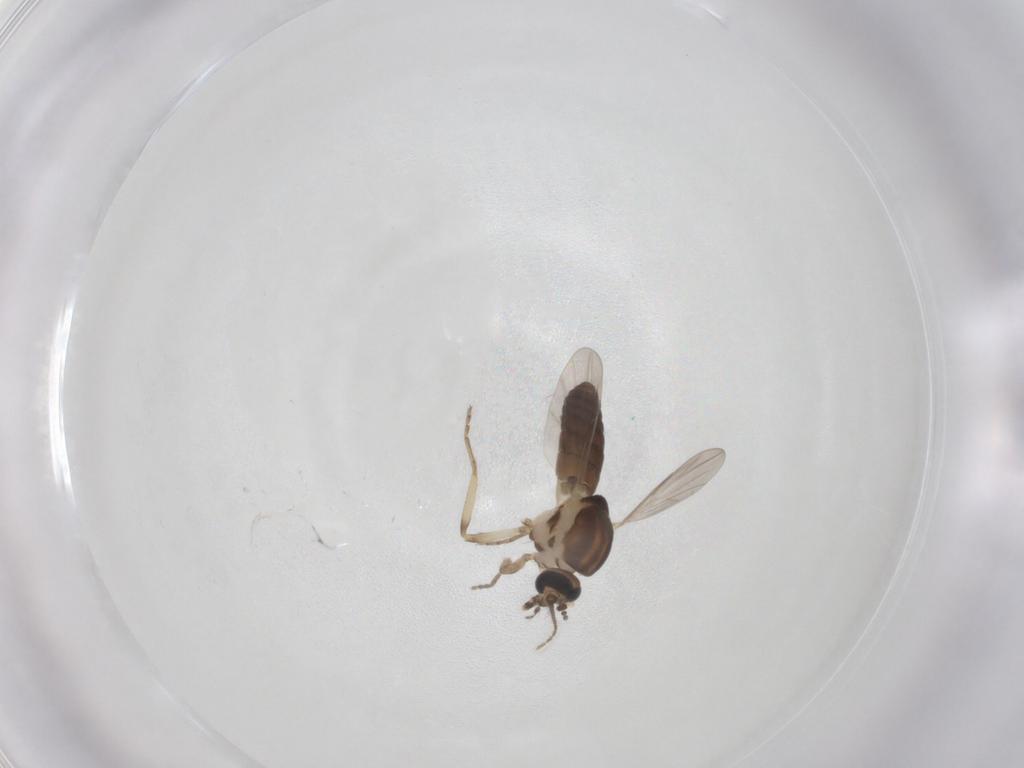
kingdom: Animalia
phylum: Arthropoda
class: Insecta
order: Diptera
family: Ceratopogonidae
